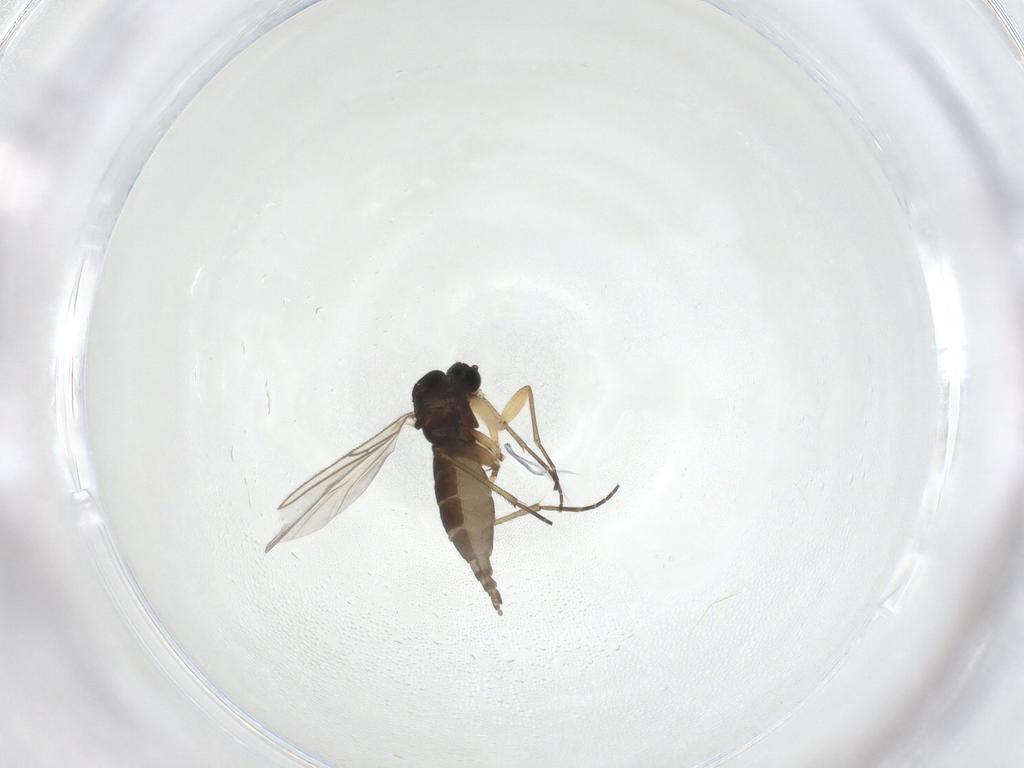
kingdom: Animalia
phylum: Arthropoda
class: Insecta
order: Diptera
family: Sciaridae
